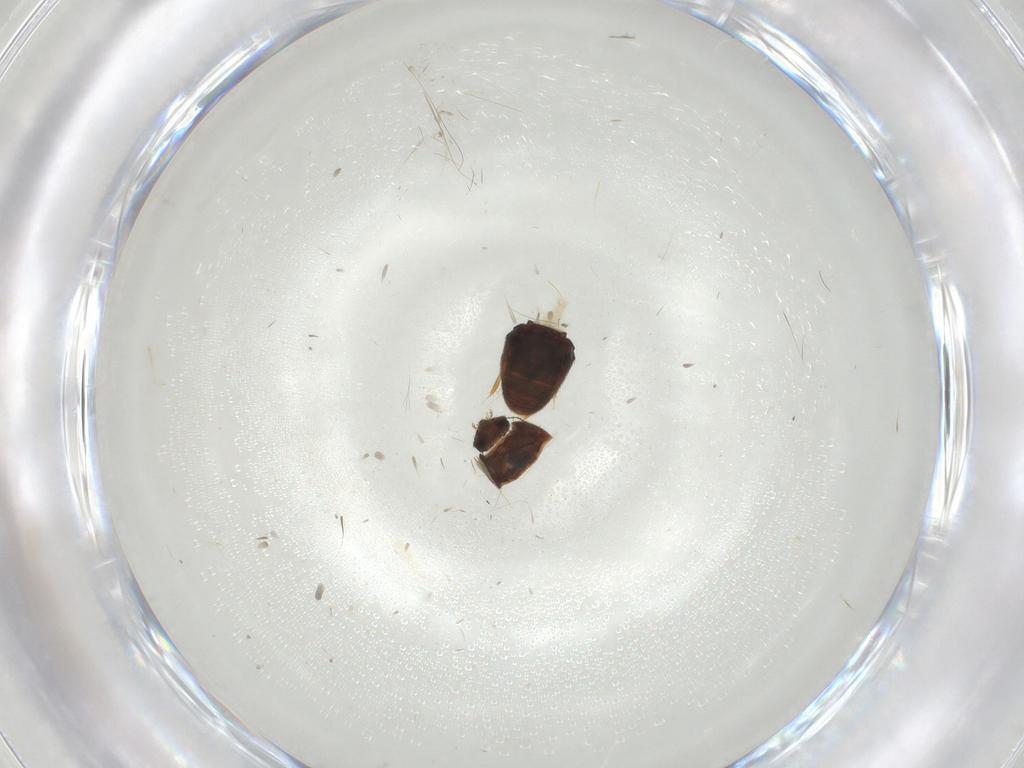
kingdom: Animalia
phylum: Arthropoda
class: Insecta
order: Coleoptera
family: Ptiliidae
